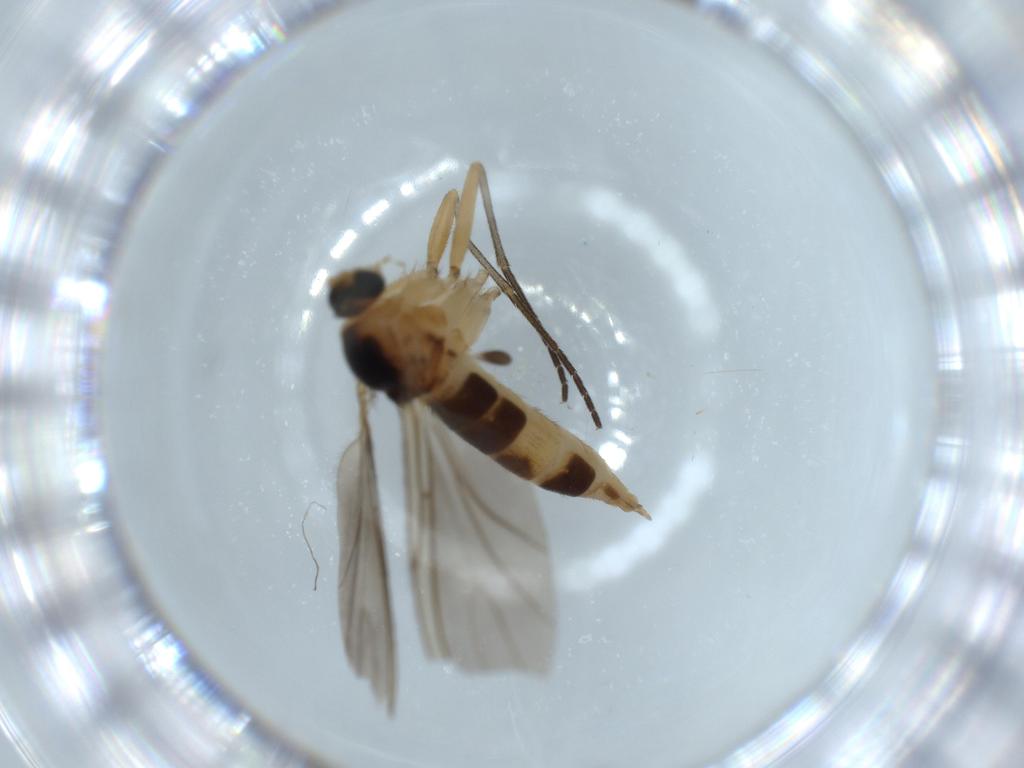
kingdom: Animalia
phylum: Arthropoda
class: Insecta
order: Diptera
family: Sciaridae
